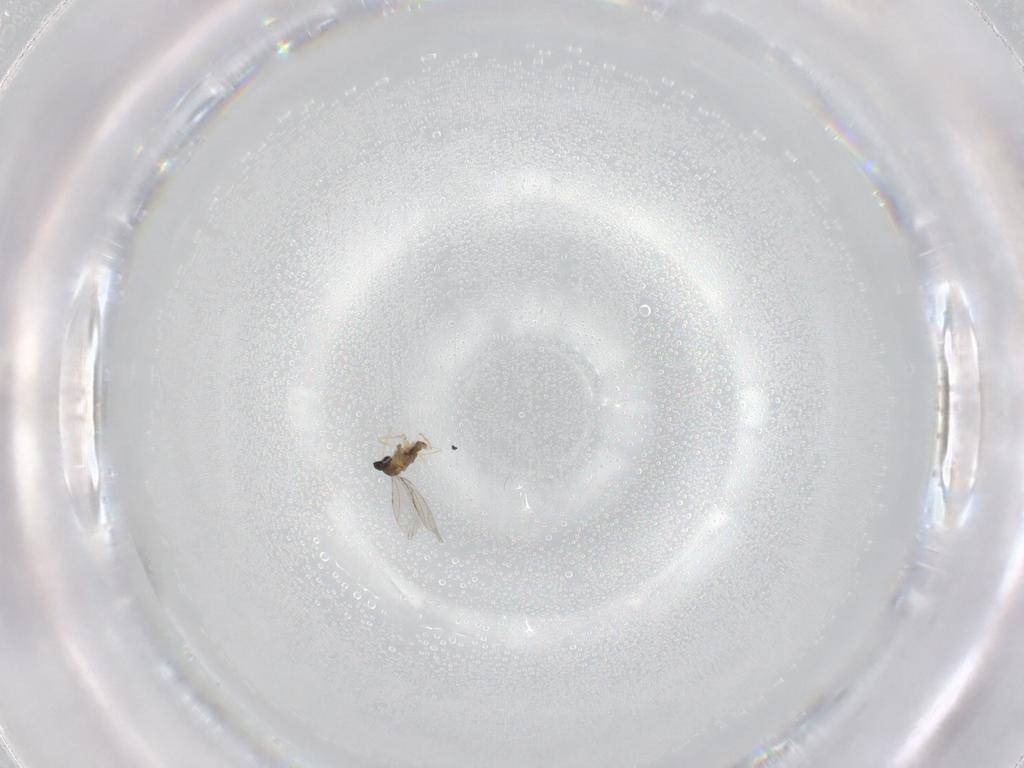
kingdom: Animalia
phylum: Arthropoda
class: Insecta
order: Diptera
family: Cecidomyiidae
